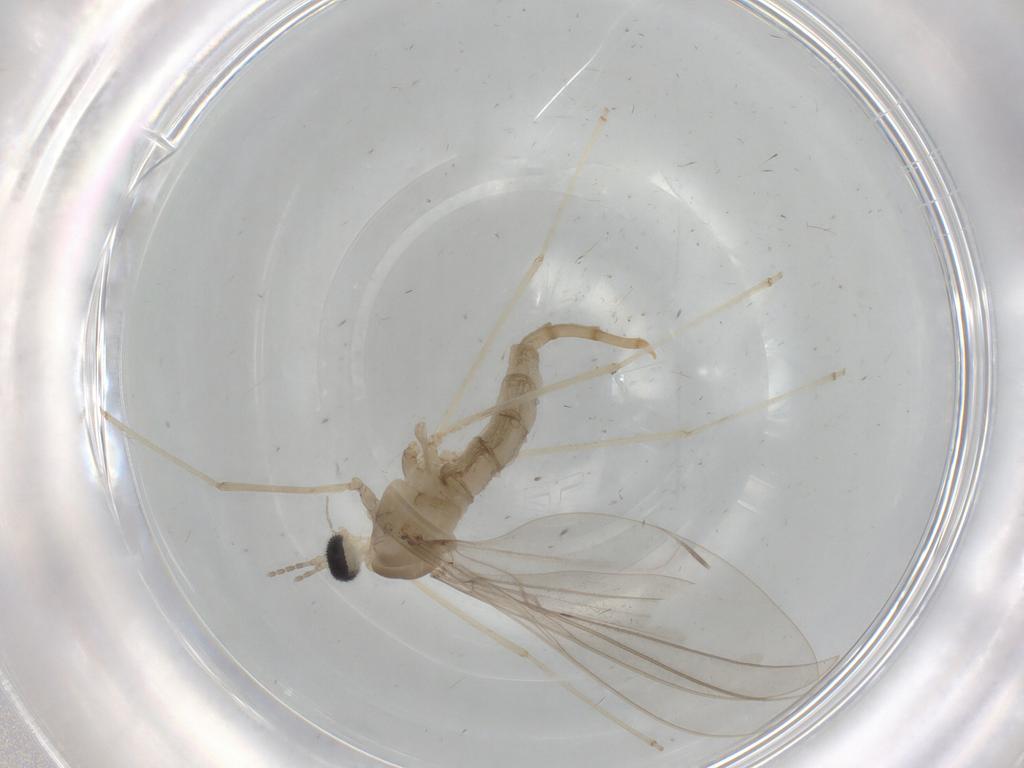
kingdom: Animalia
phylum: Arthropoda
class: Insecta
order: Diptera
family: Cecidomyiidae
